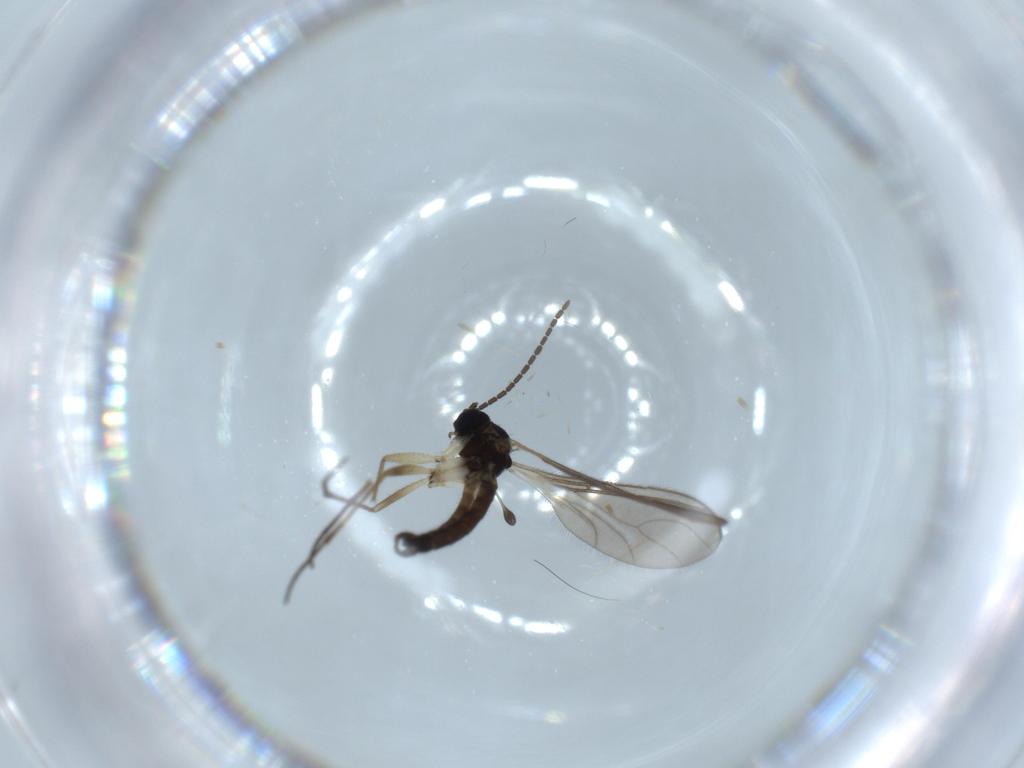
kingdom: Animalia
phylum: Arthropoda
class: Insecta
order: Diptera
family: Sciaridae
